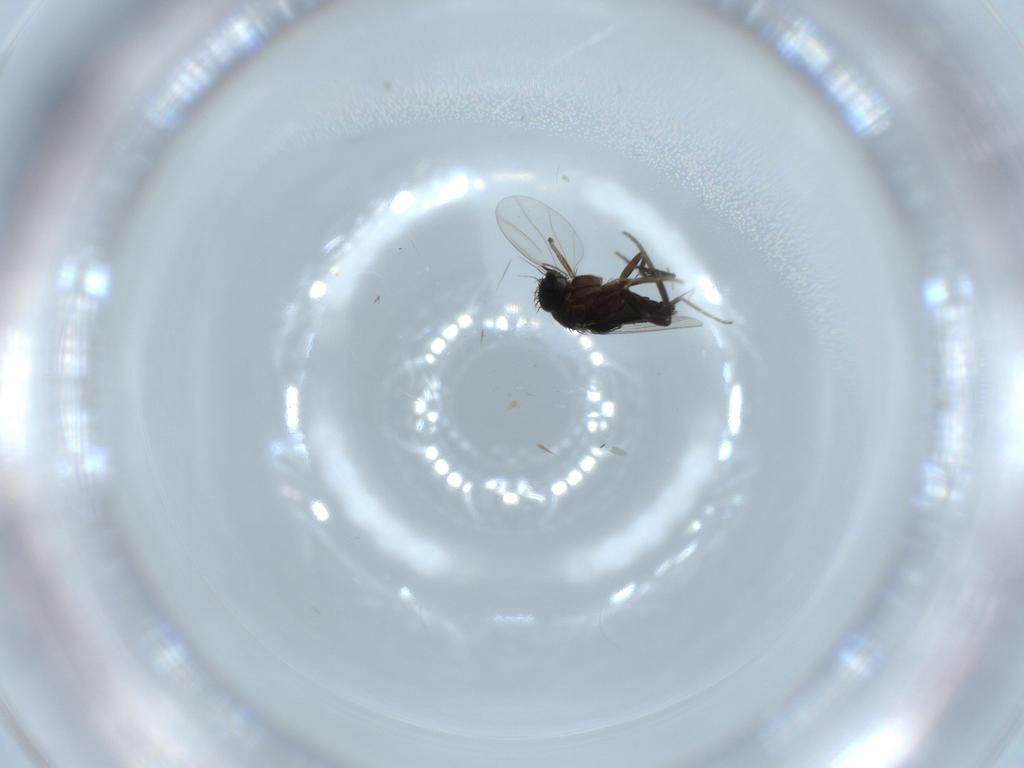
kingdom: Animalia
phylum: Arthropoda
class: Insecta
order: Diptera
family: Phoridae
